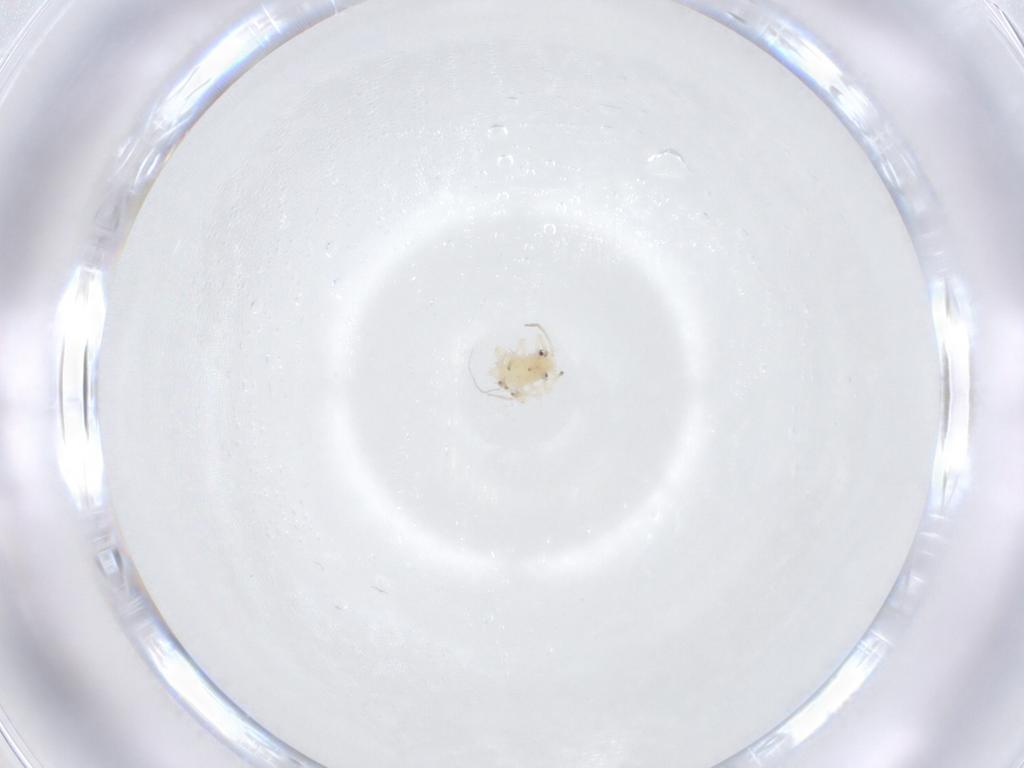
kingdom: Animalia
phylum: Arthropoda
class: Insecta
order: Hemiptera
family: Aphididae
